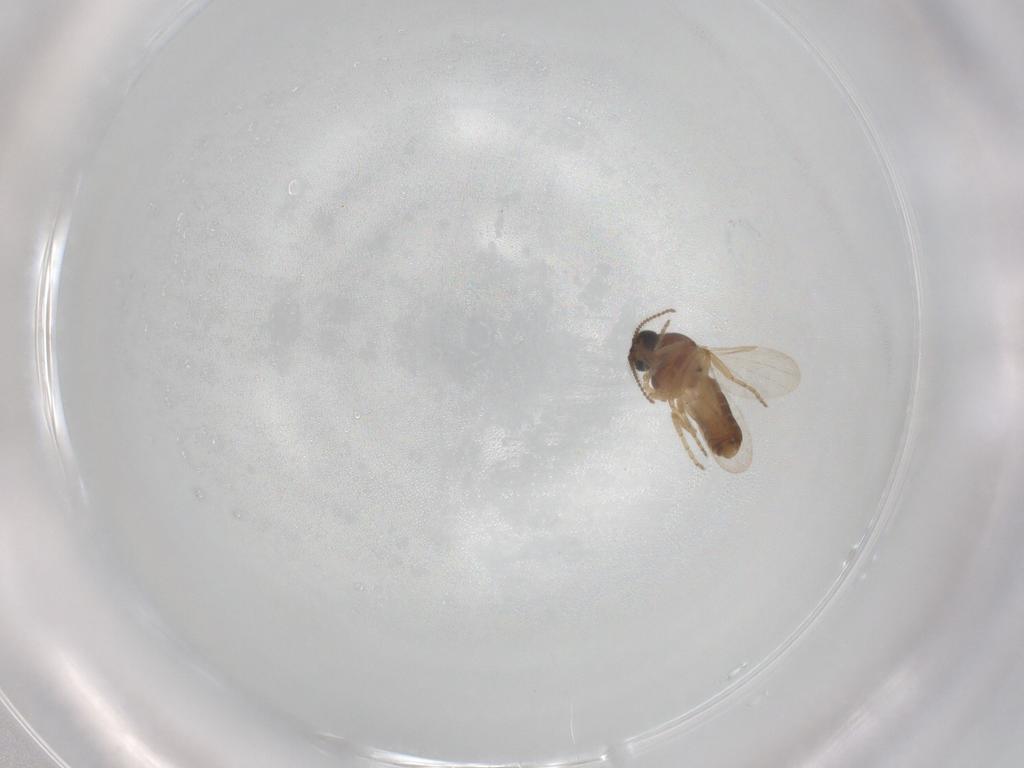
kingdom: Animalia
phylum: Arthropoda
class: Insecta
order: Diptera
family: Ceratopogonidae
